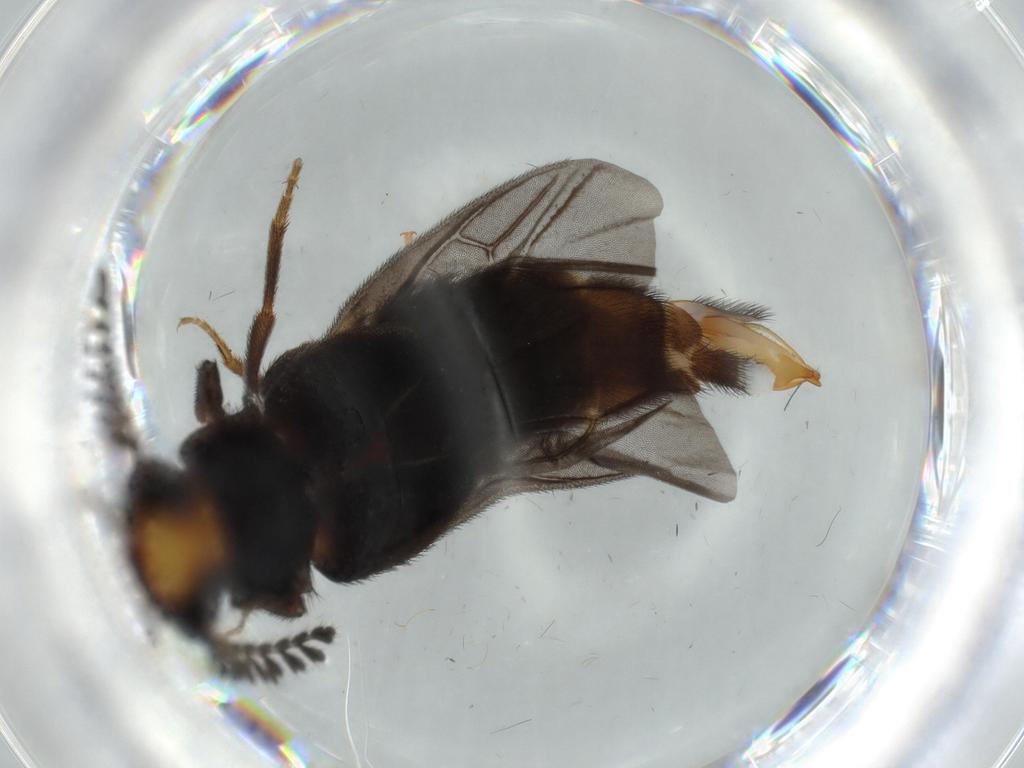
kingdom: Animalia
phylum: Arthropoda
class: Insecta
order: Coleoptera
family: Phengodidae
